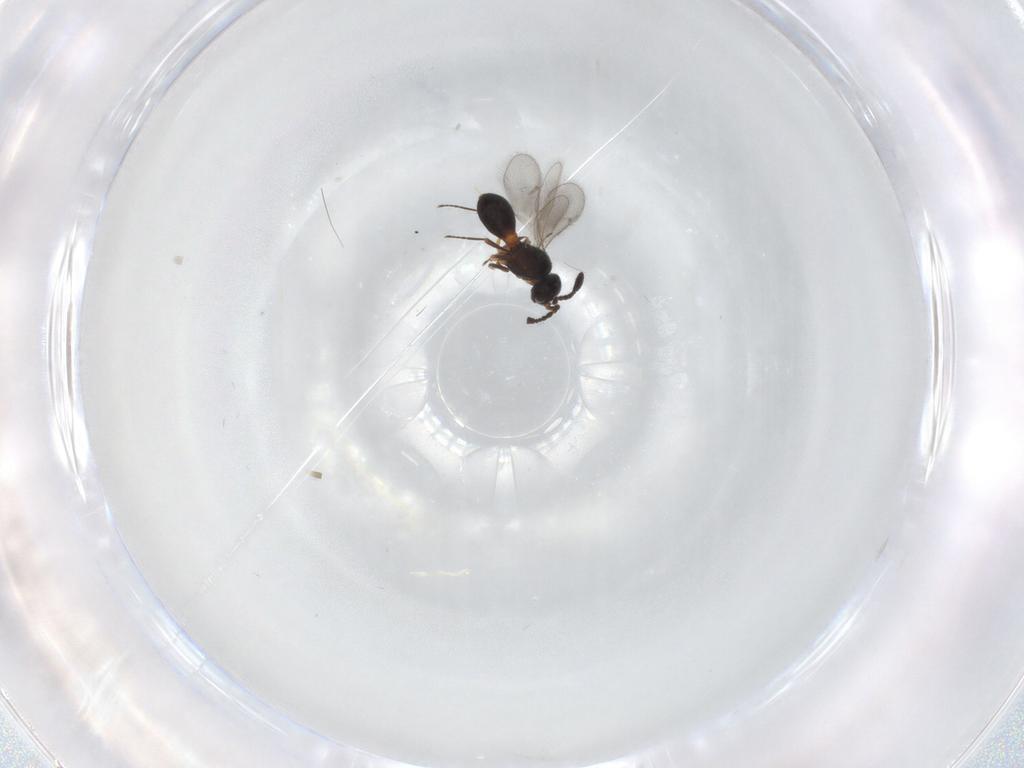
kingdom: Animalia
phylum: Arthropoda
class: Insecta
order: Hymenoptera
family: Scelionidae
